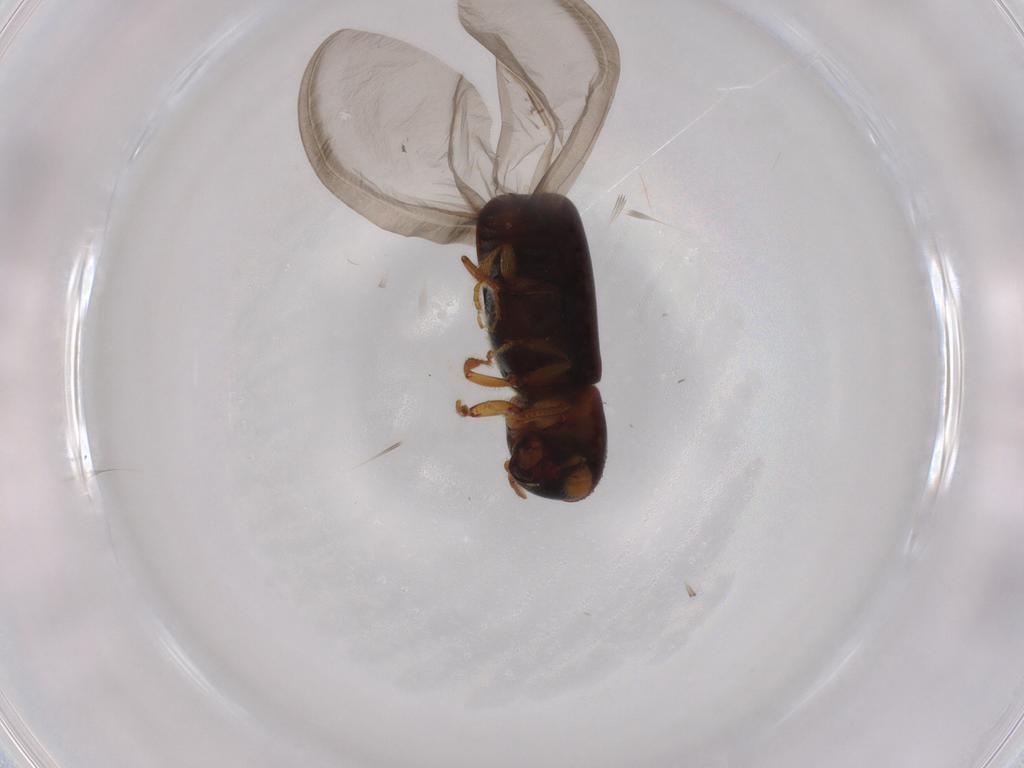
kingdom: Animalia
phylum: Arthropoda
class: Insecta
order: Coleoptera
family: Curculionidae
